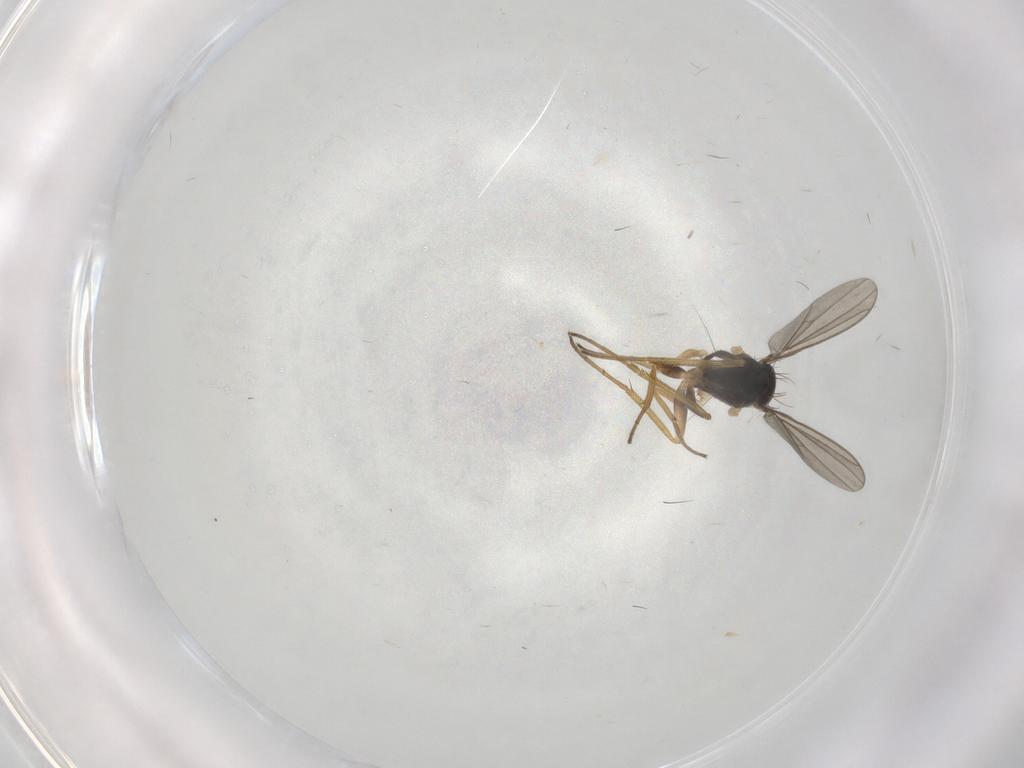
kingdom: Animalia
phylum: Arthropoda
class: Insecta
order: Diptera
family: Dolichopodidae
